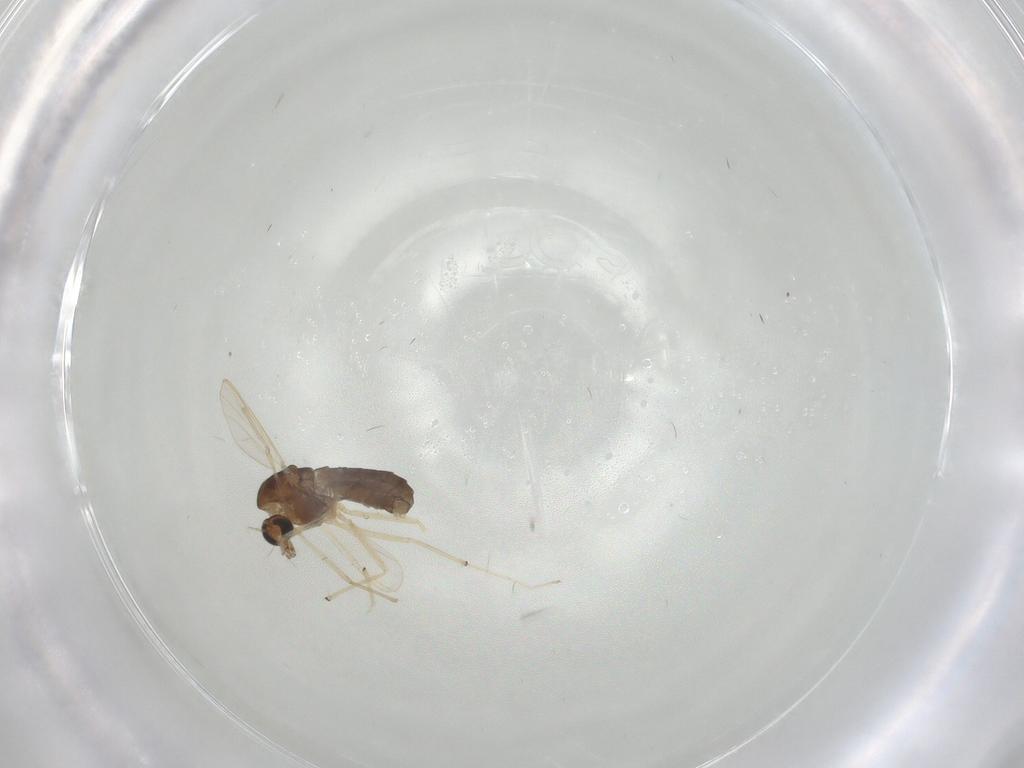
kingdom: Animalia
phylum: Arthropoda
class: Insecta
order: Diptera
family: Chironomidae
